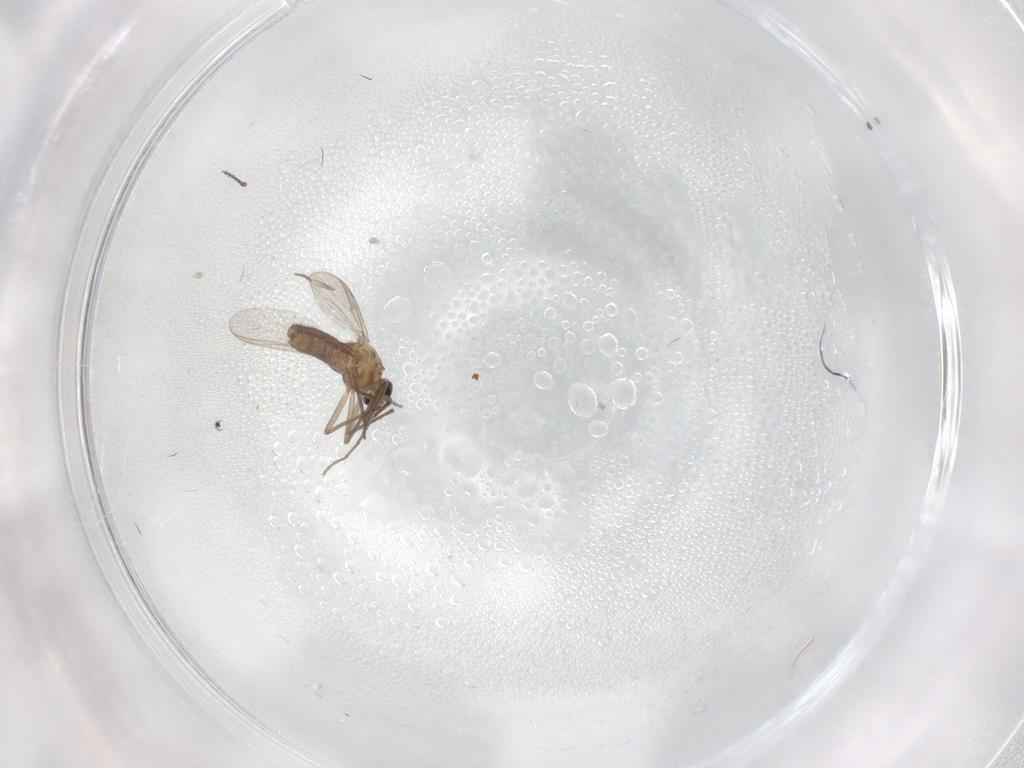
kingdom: Animalia
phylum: Arthropoda
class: Insecta
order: Diptera
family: Chironomidae
